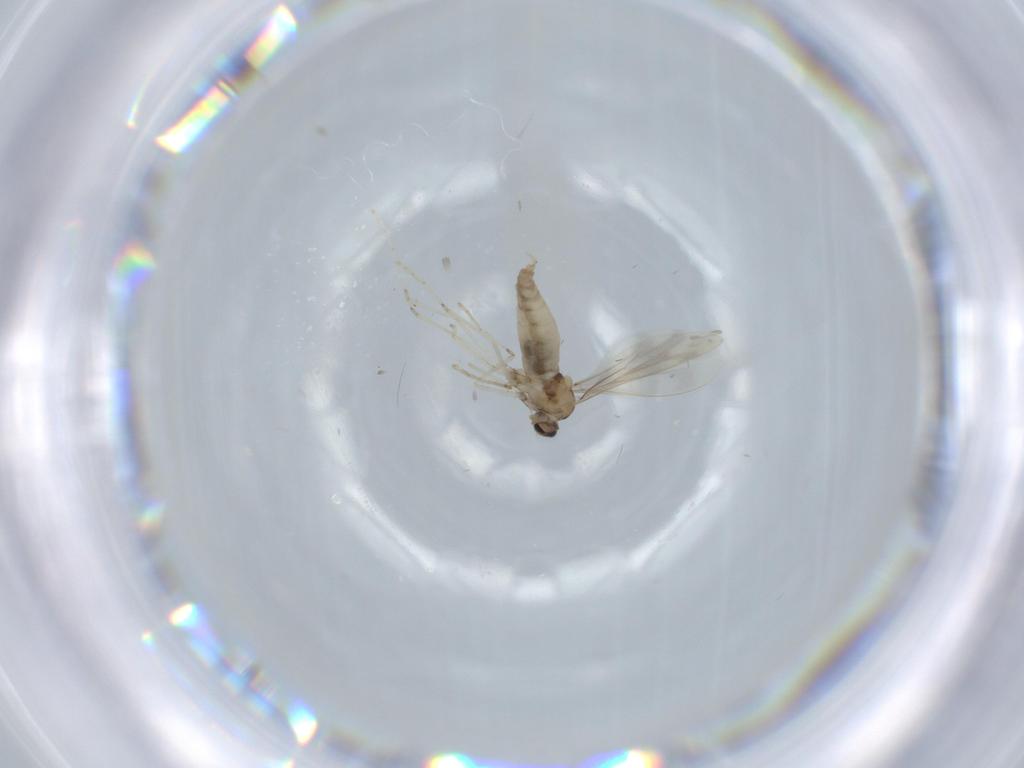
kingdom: Animalia
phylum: Arthropoda
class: Insecta
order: Diptera
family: Cecidomyiidae
